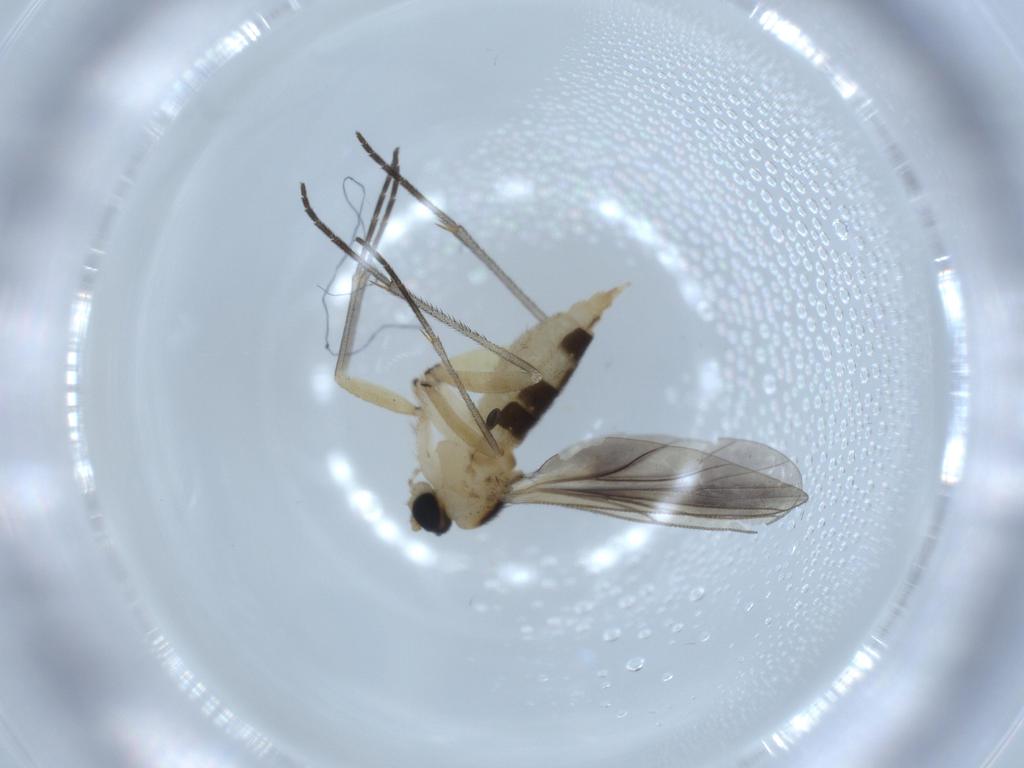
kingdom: Animalia
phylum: Arthropoda
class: Insecta
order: Diptera
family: Sciaridae
